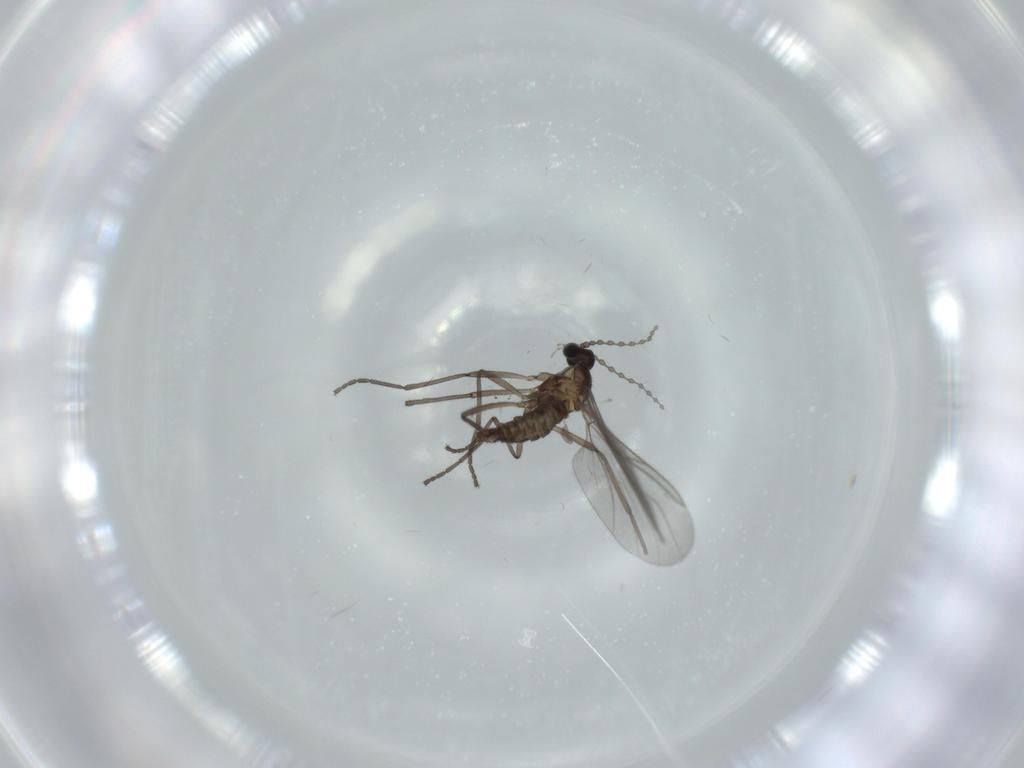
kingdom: Animalia
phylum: Arthropoda
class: Insecta
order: Diptera
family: Cecidomyiidae
